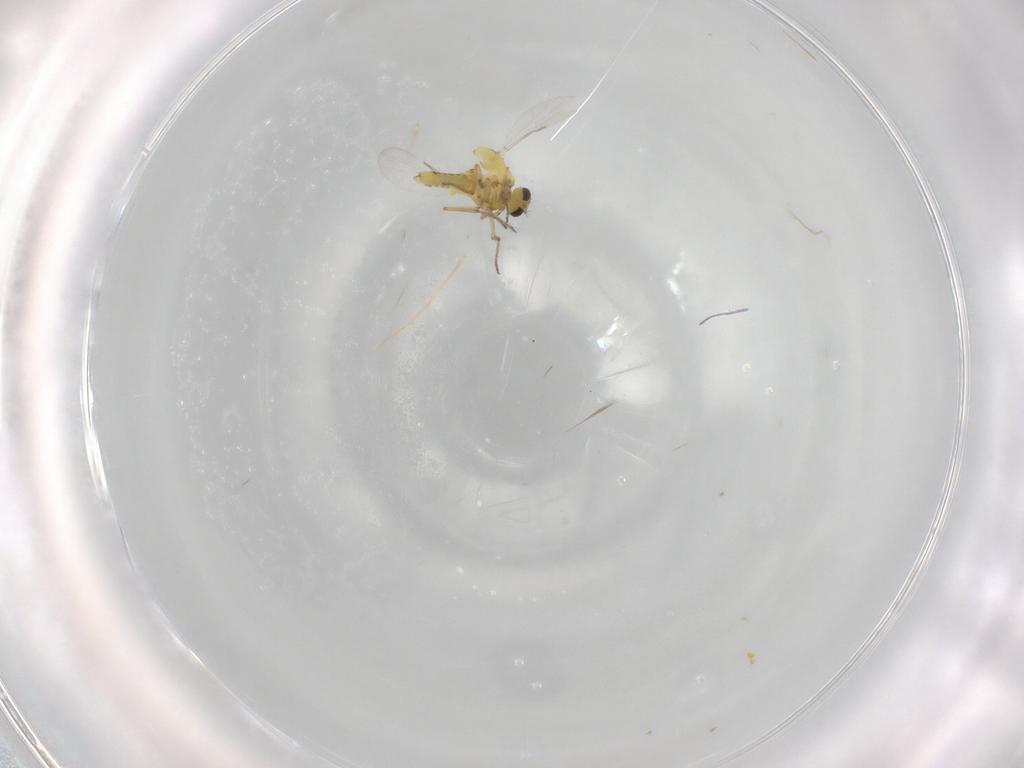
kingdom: Animalia
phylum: Arthropoda
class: Insecta
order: Diptera
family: Ceratopogonidae
